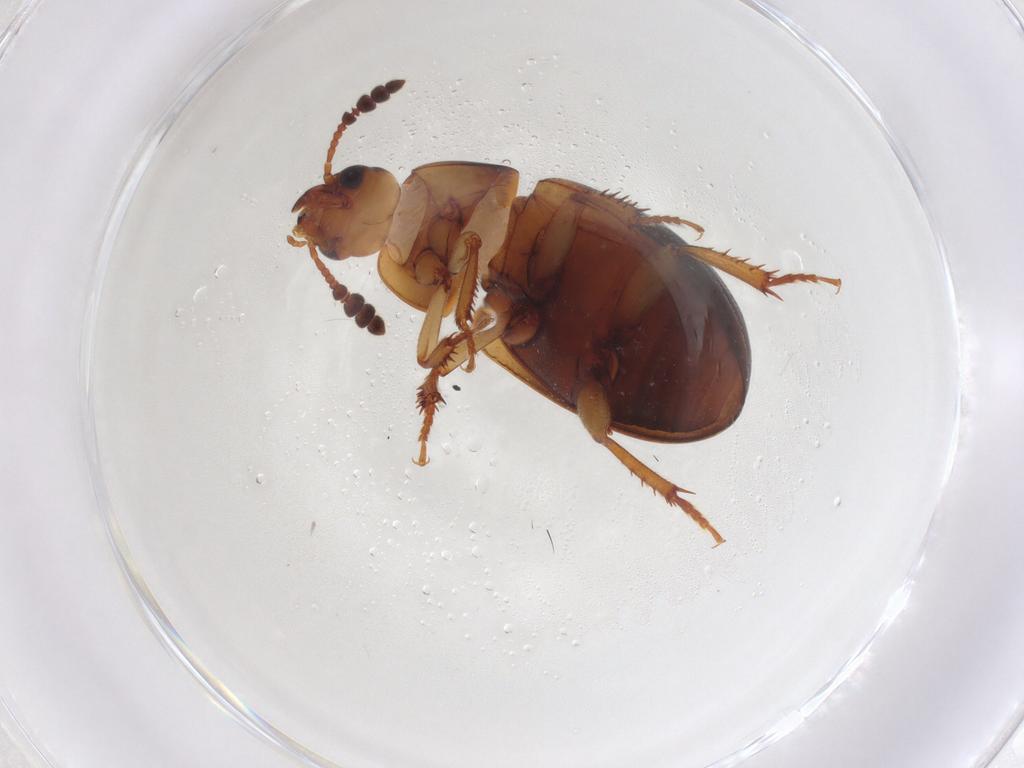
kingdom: Animalia
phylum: Arthropoda
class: Insecta
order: Coleoptera
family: Leiodidae
